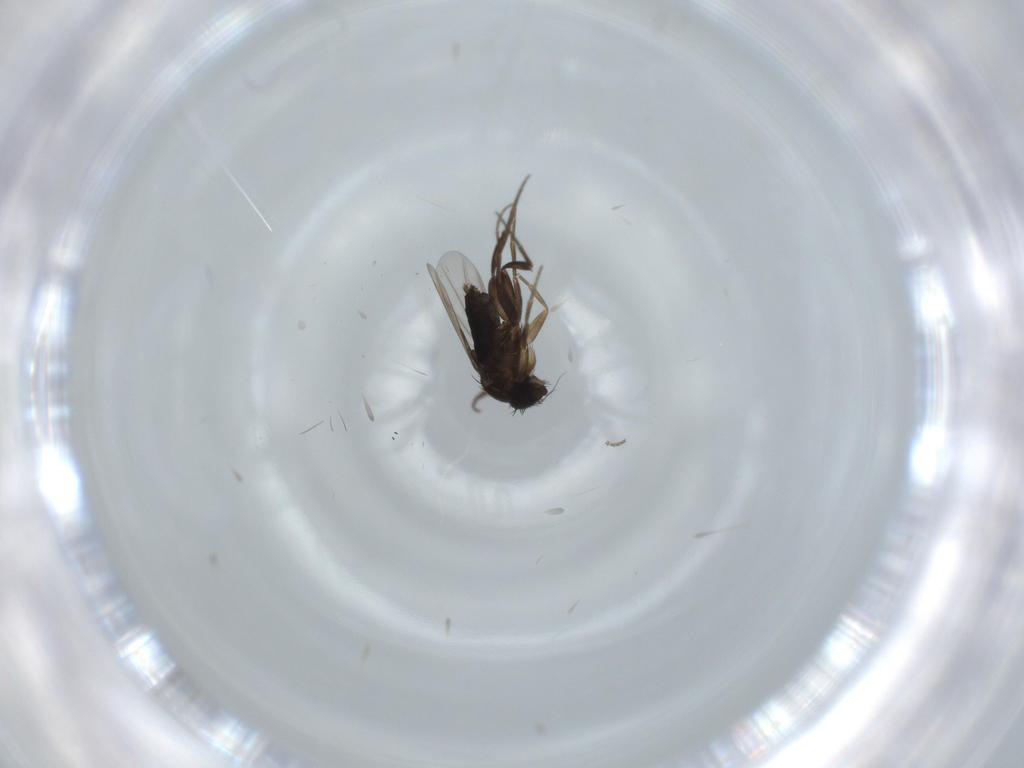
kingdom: Animalia
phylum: Arthropoda
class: Insecta
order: Diptera
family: Phoridae
